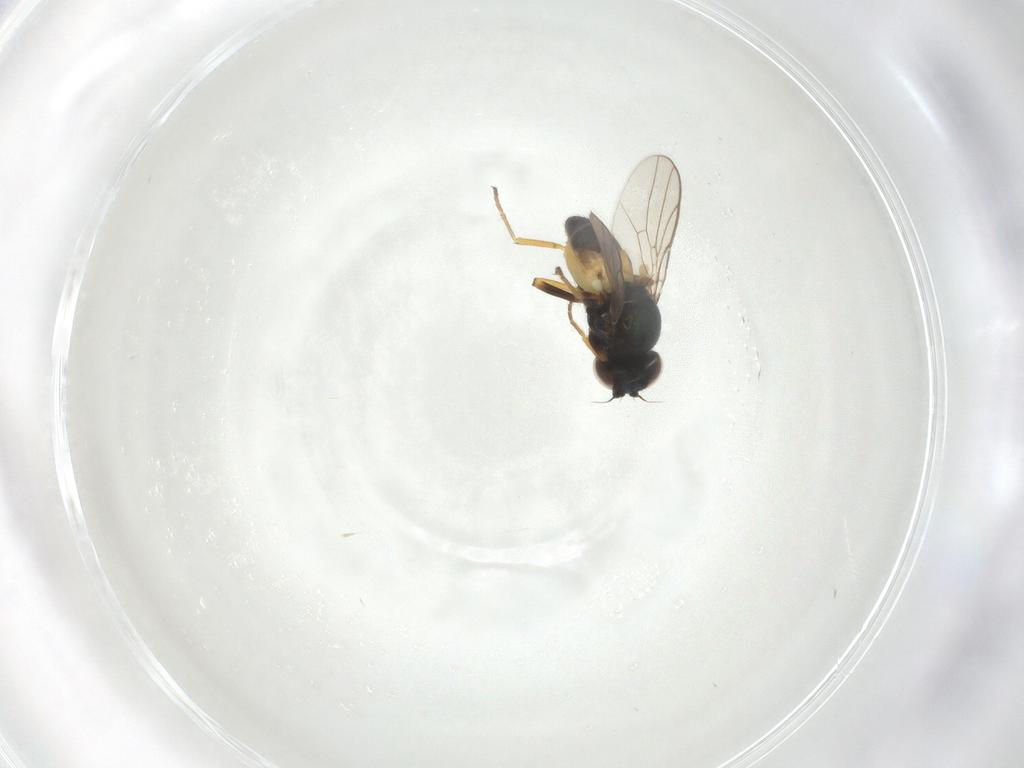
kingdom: Animalia
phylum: Arthropoda
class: Insecta
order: Diptera
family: Chloropidae
